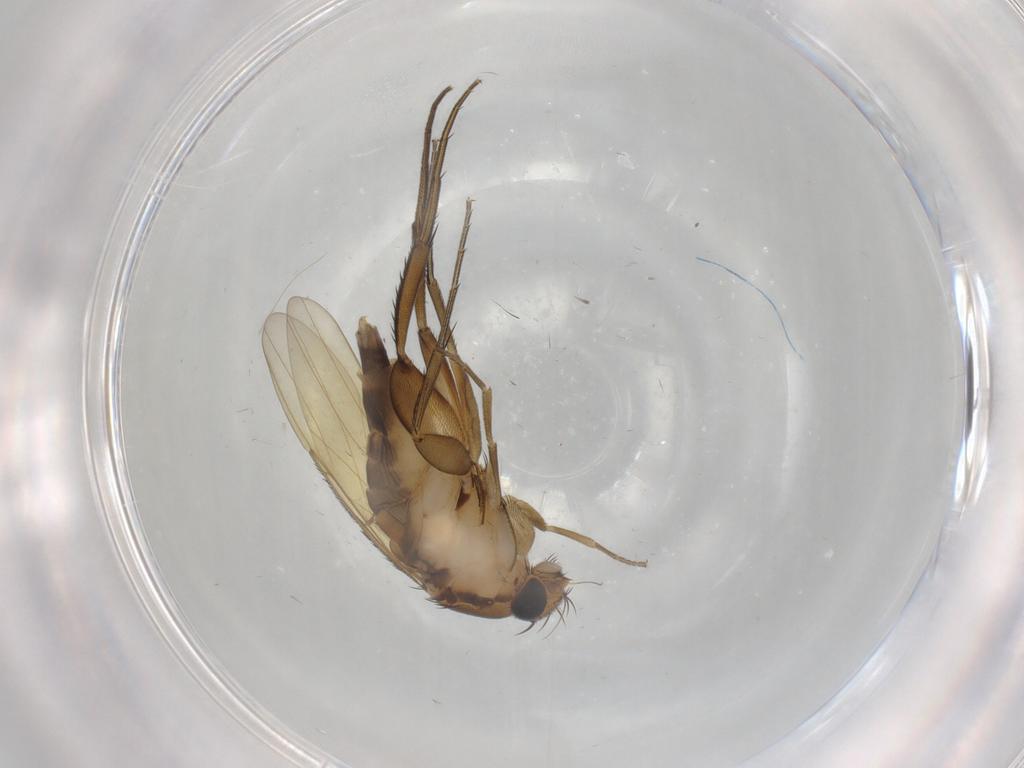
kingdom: Animalia
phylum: Arthropoda
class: Insecta
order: Diptera
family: Phoridae
